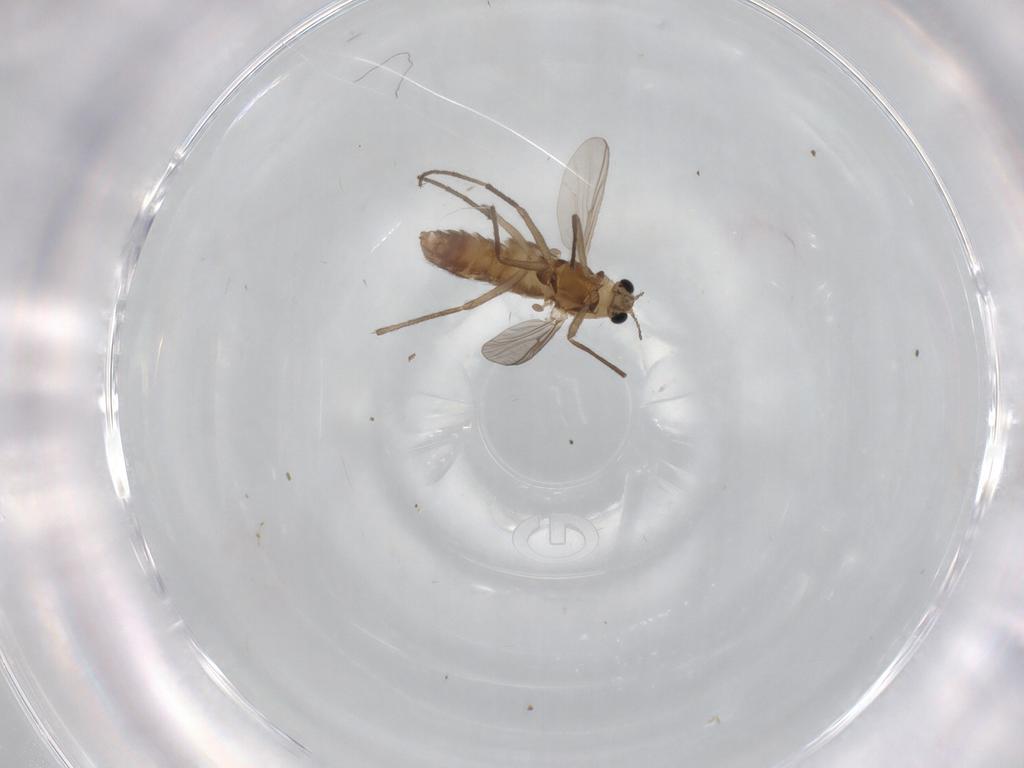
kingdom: Animalia
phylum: Arthropoda
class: Insecta
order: Diptera
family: Chironomidae
